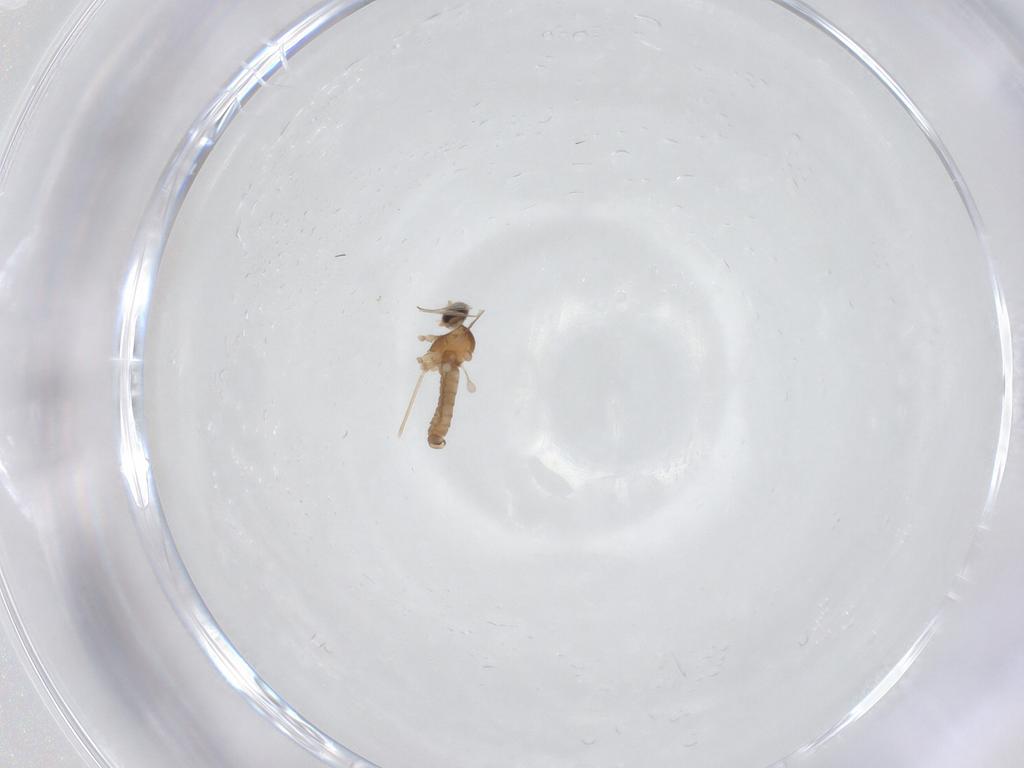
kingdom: Animalia
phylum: Arthropoda
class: Insecta
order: Diptera
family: Cecidomyiidae
